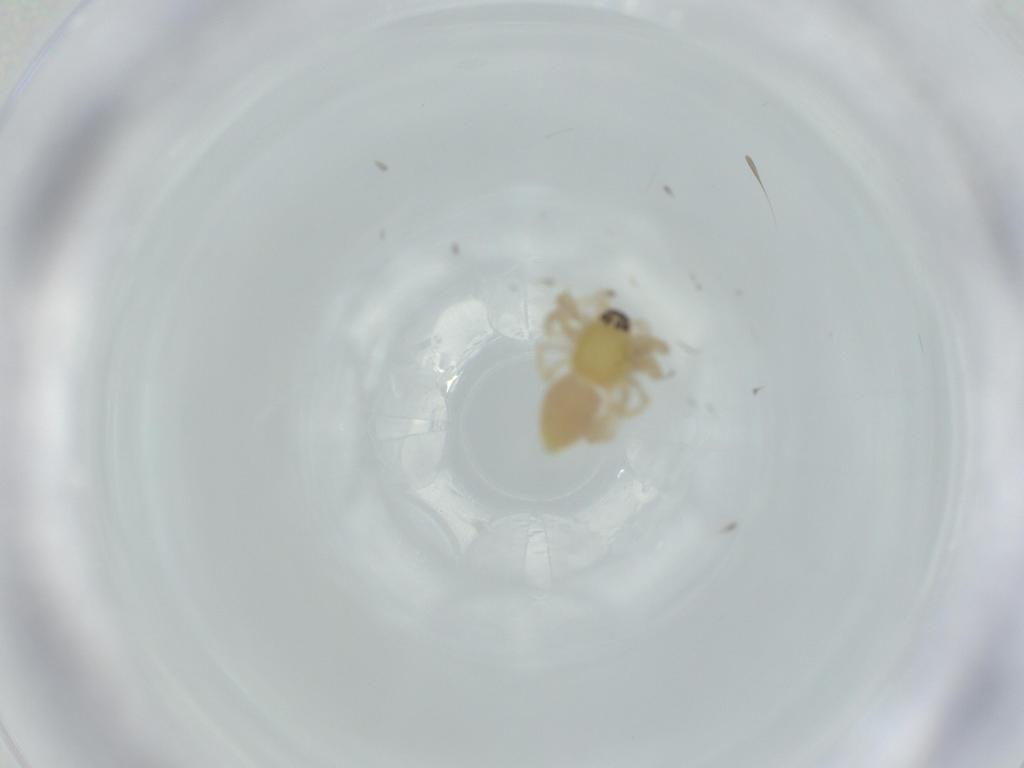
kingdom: Animalia
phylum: Arthropoda
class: Arachnida
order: Araneae
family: Anyphaenidae
